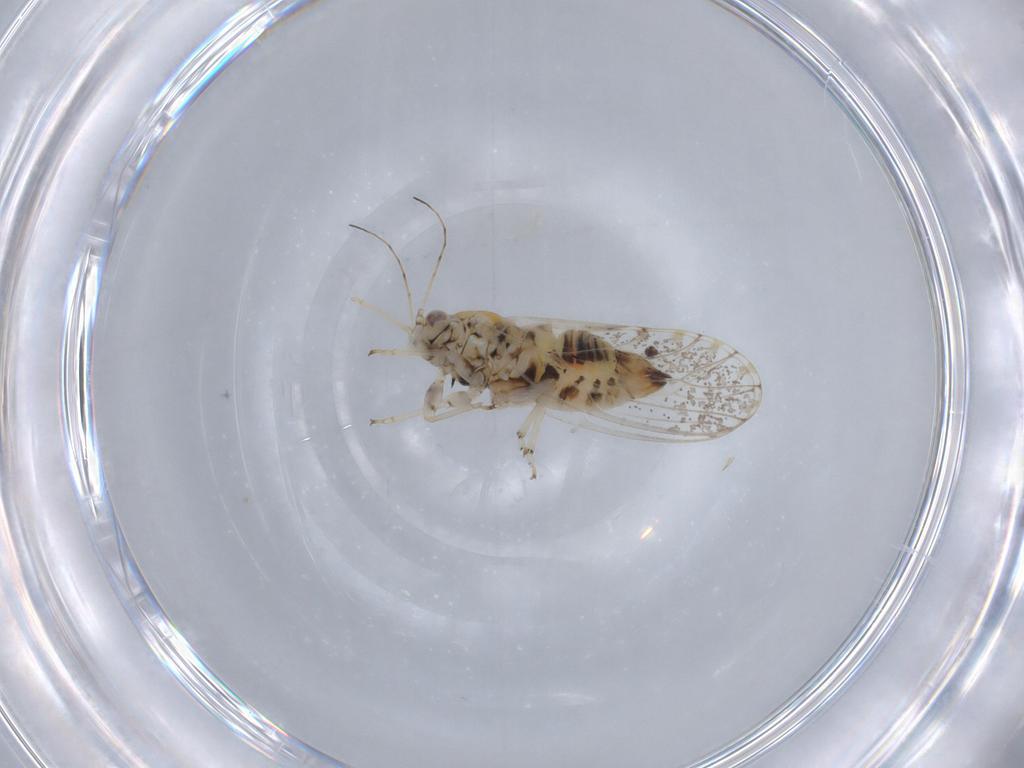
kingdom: Animalia
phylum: Arthropoda
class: Insecta
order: Hemiptera
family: Psyllidae
